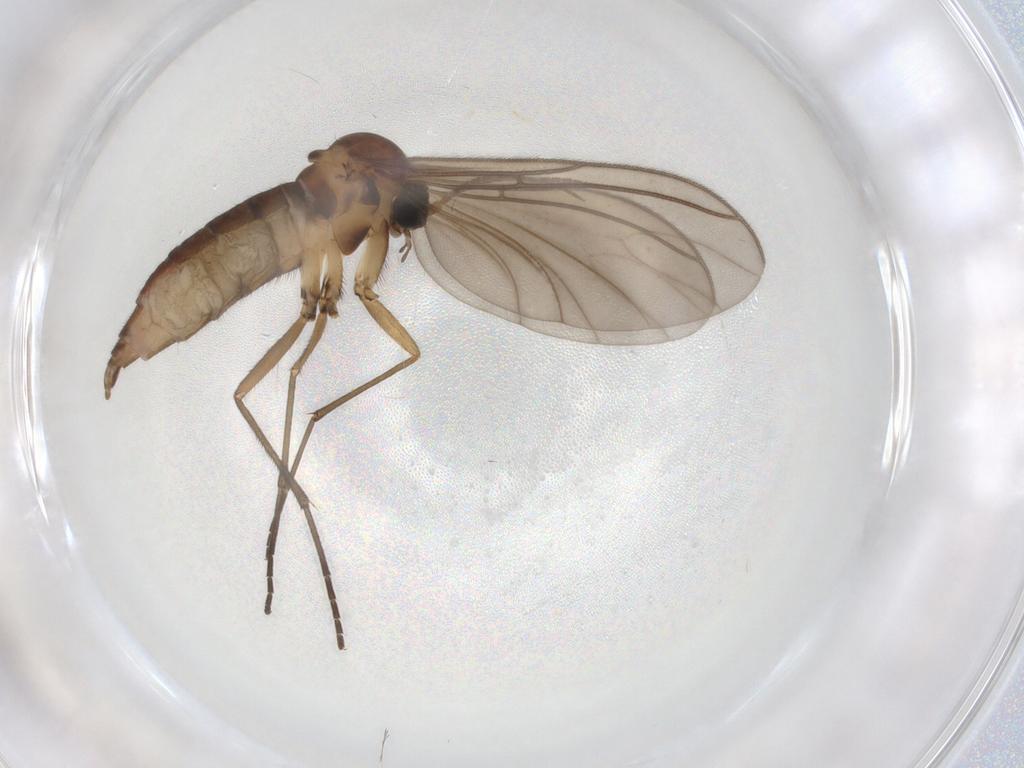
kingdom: Animalia
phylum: Arthropoda
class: Insecta
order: Diptera
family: Sciaridae
